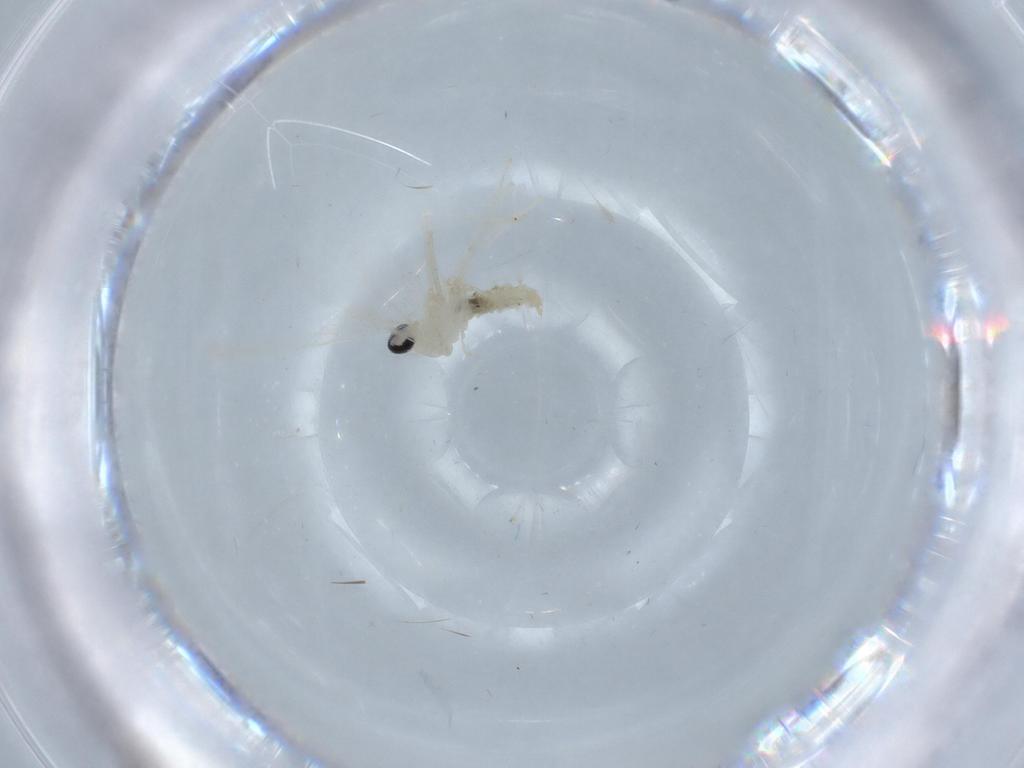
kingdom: Animalia
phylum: Arthropoda
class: Insecta
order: Diptera
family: Cecidomyiidae
